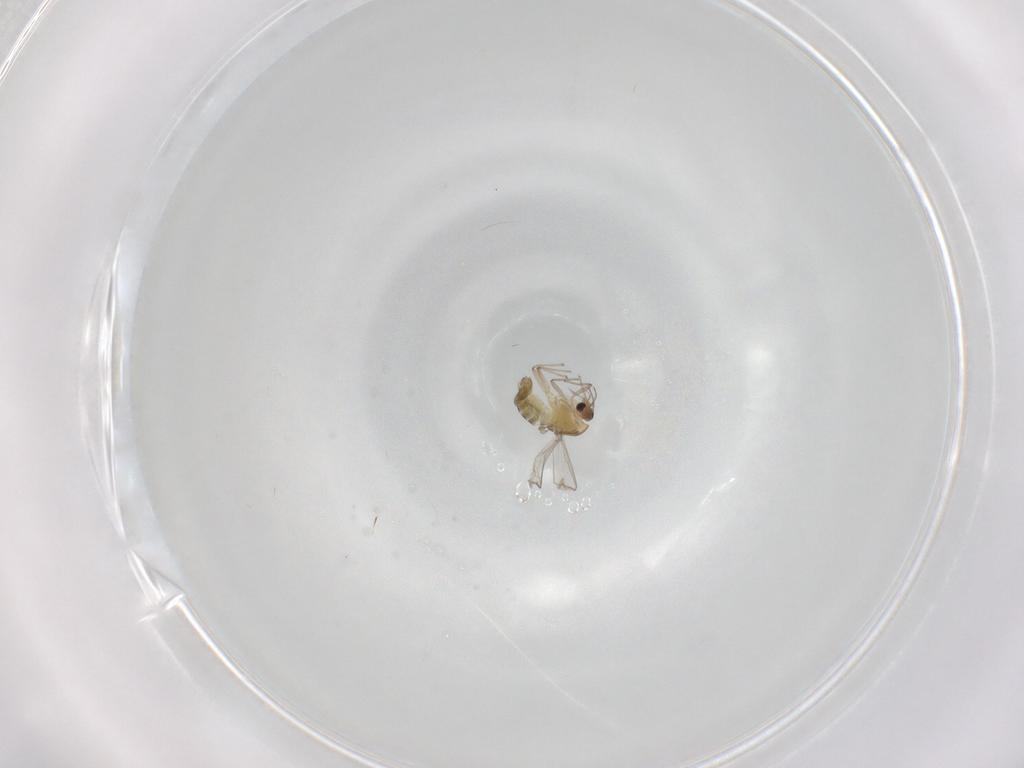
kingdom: Animalia
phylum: Arthropoda
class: Insecta
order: Diptera
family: Chironomidae
